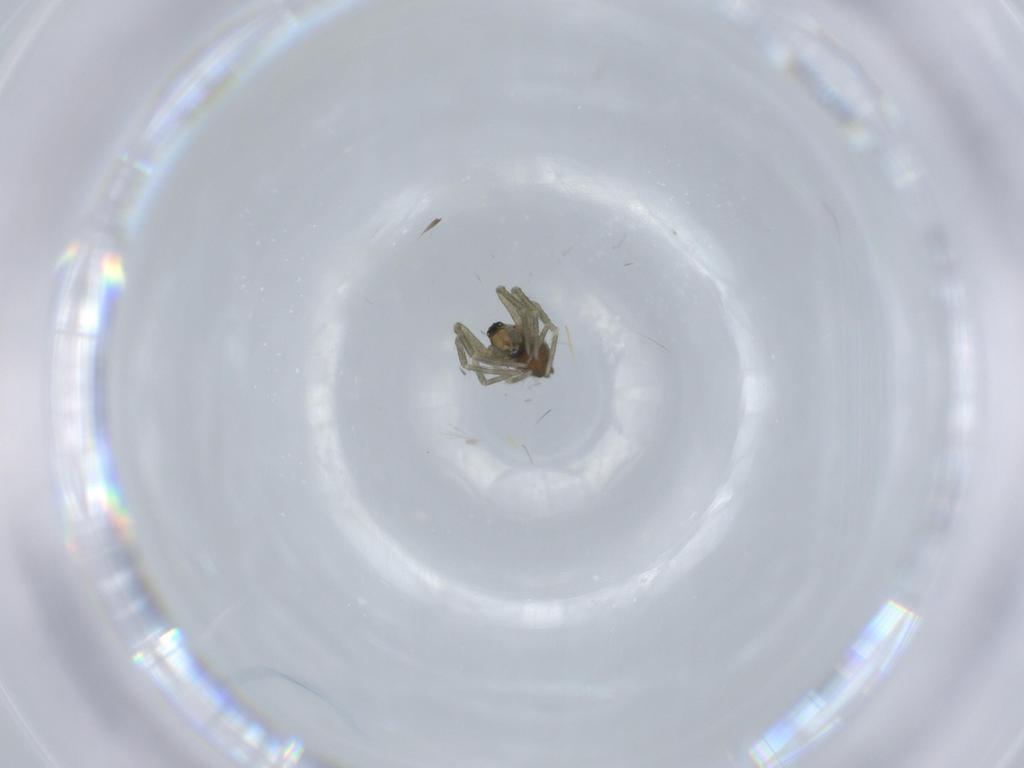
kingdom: Animalia
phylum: Arthropoda
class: Arachnida
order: Araneae
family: Linyphiidae
